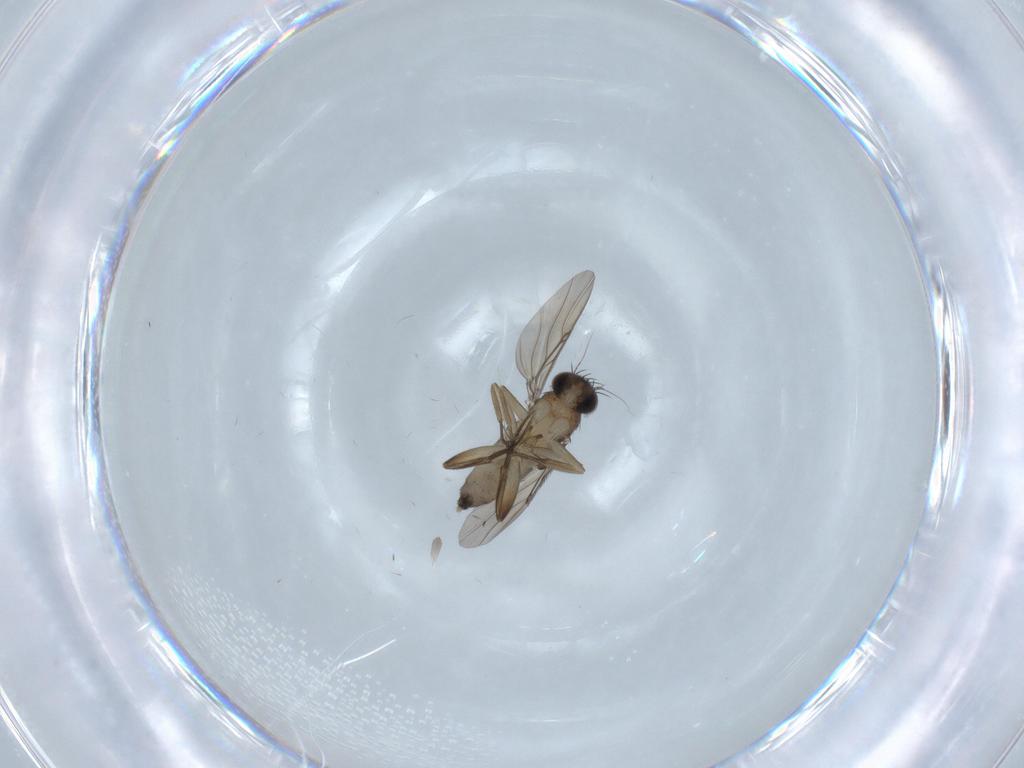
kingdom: Animalia
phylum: Arthropoda
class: Insecta
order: Diptera
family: Phoridae
